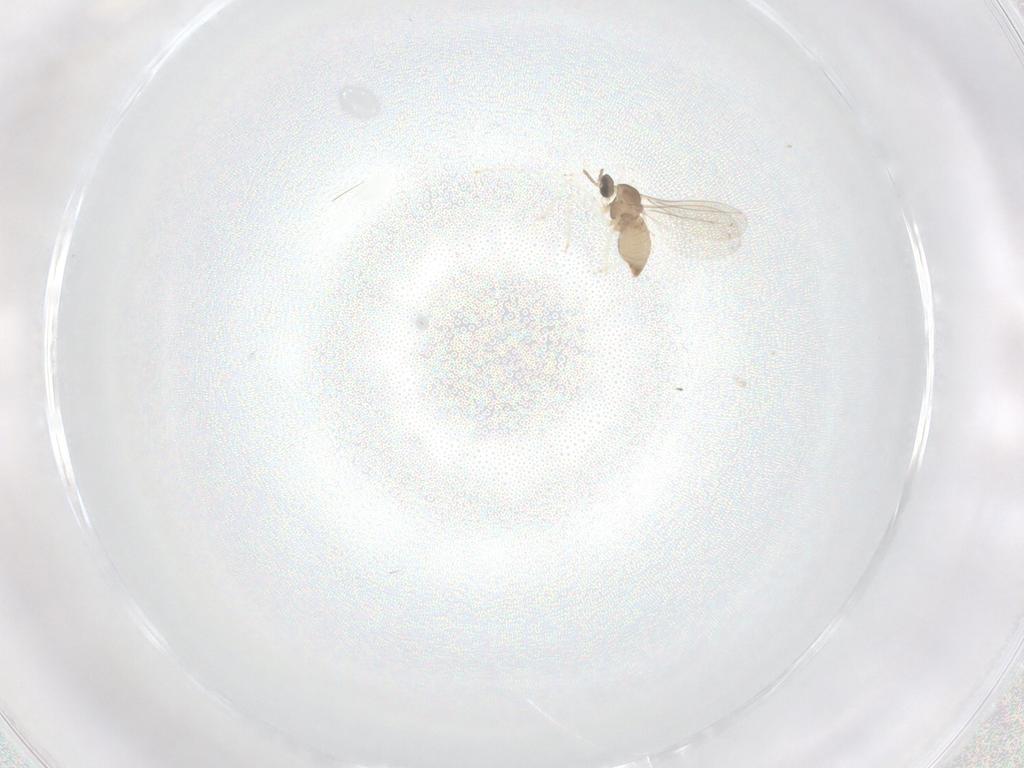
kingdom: Animalia
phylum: Arthropoda
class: Insecta
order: Diptera
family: Cecidomyiidae
